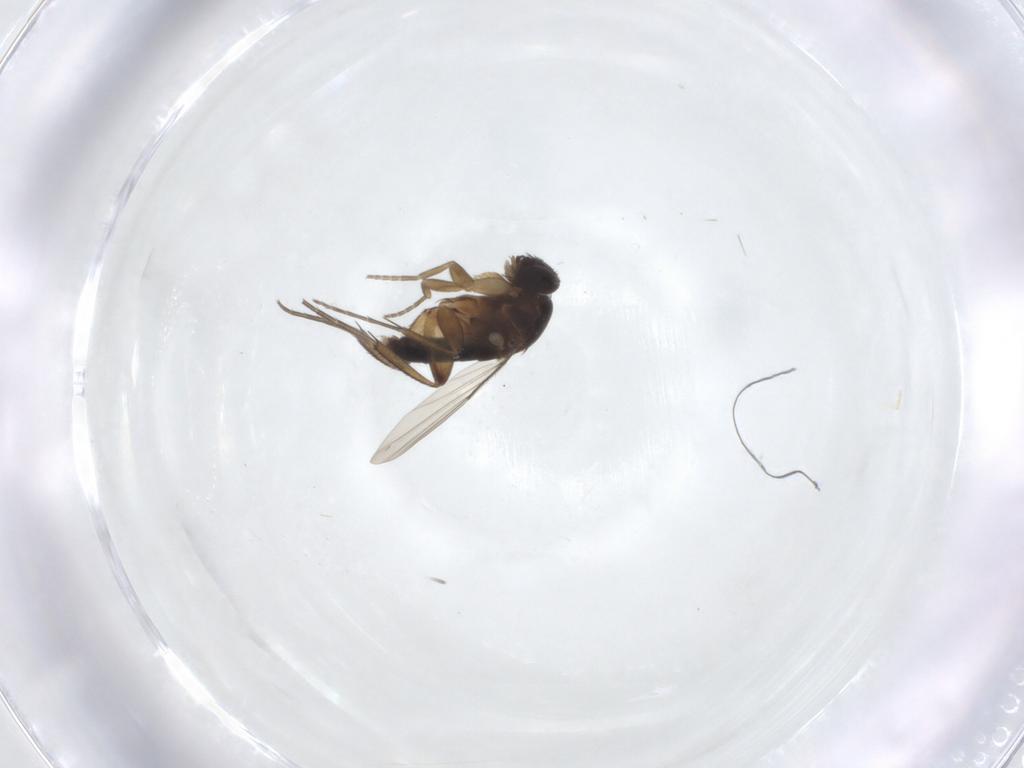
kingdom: Animalia
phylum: Arthropoda
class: Insecta
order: Diptera
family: Phoridae
